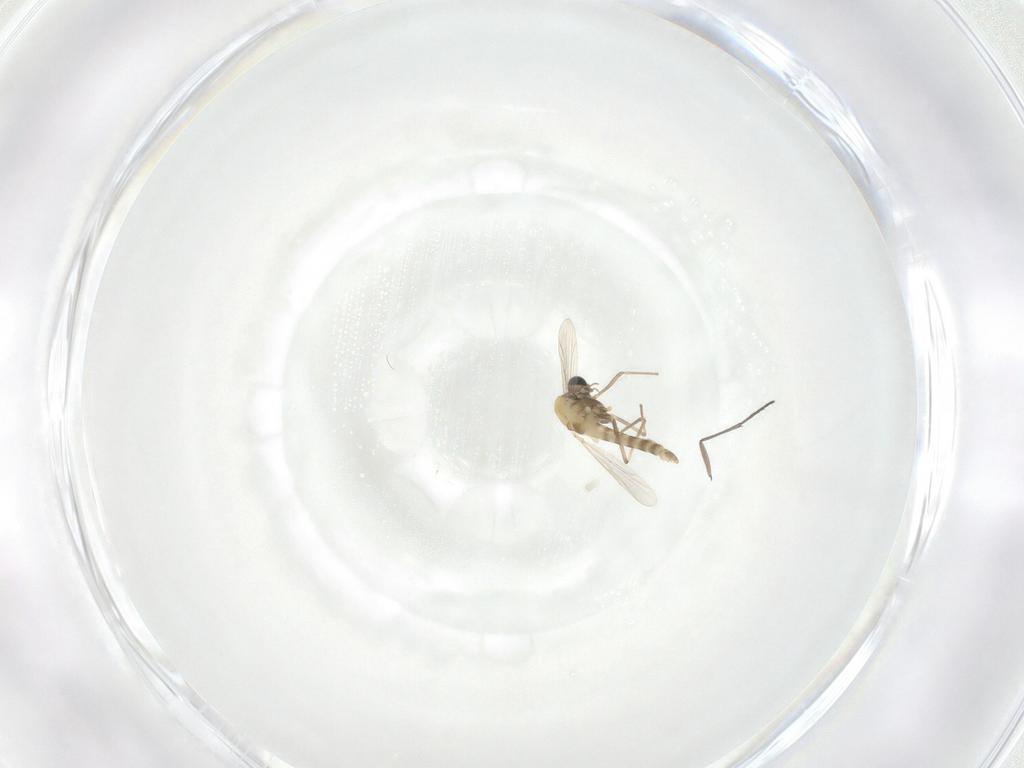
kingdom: Animalia
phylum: Arthropoda
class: Insecta
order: Diptera
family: Chironomidae
